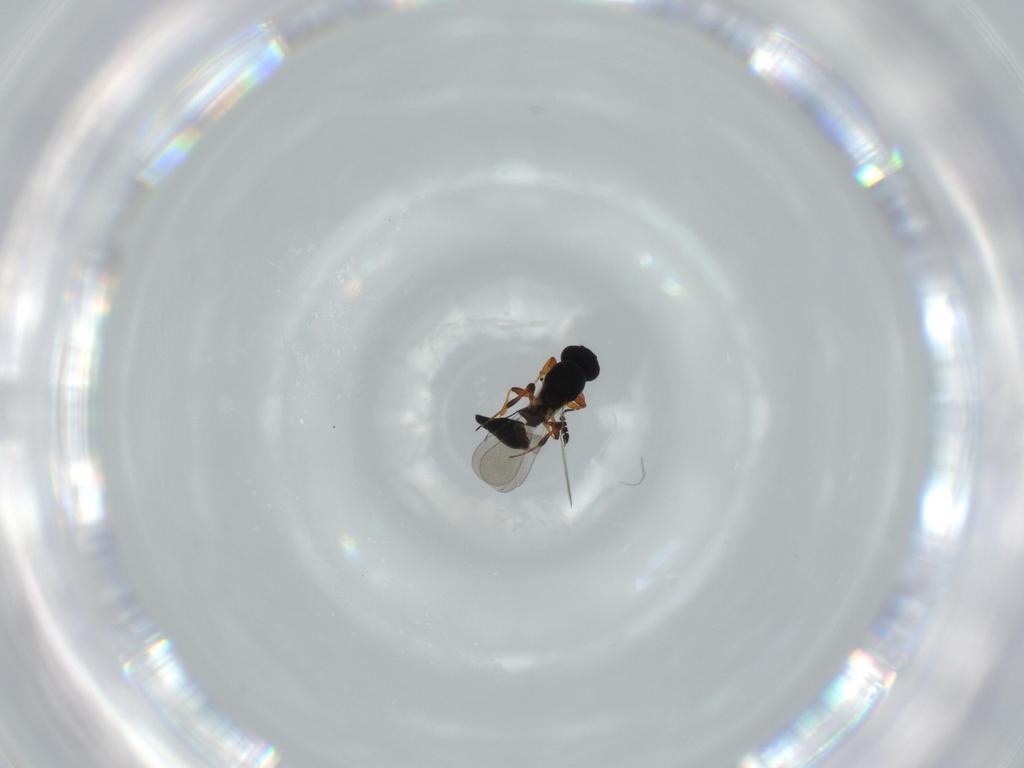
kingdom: Animalia
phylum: Arthropoda
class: Insecta
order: Hymenoptera
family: Platygastridae
